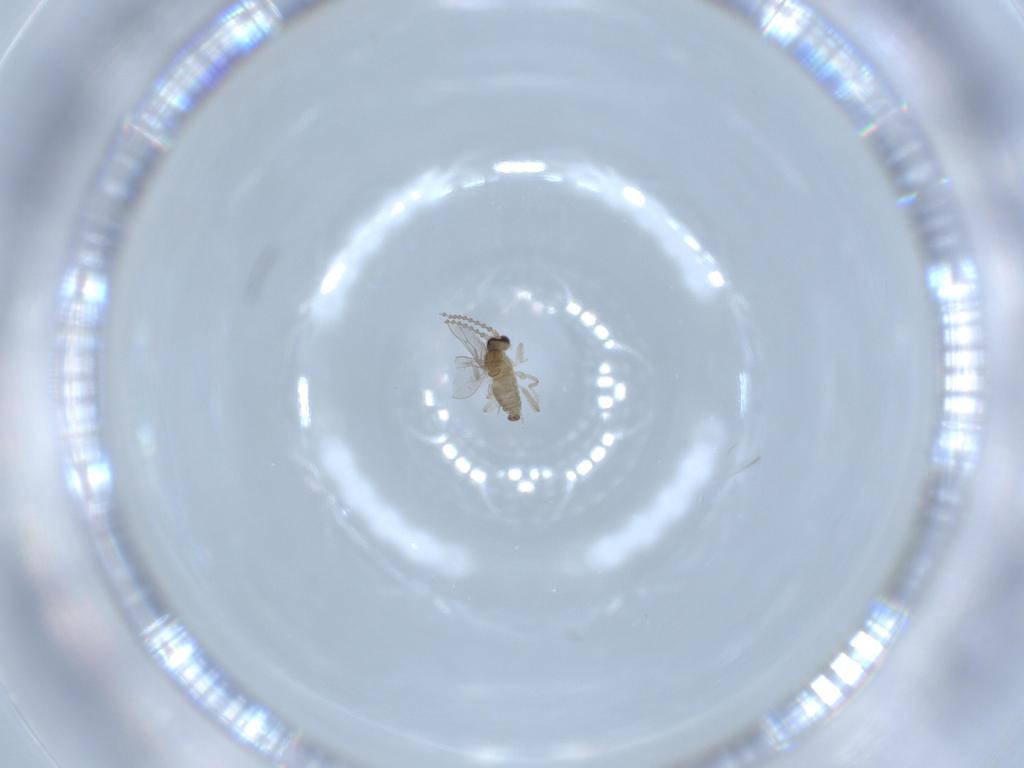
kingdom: Animalia
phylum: Arthropoda
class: Insecta
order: Diptera
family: Cecidomyiidae
